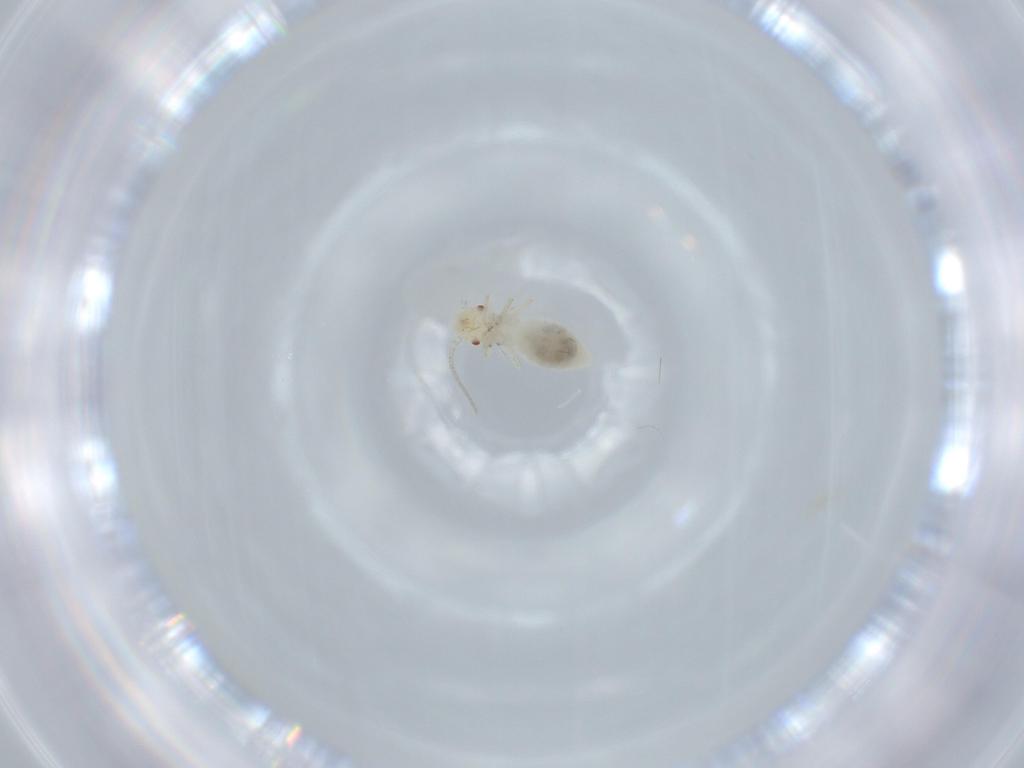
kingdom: Animalia
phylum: Arthropoda
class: Insecta
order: Psocodea
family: Caeciliusidae
